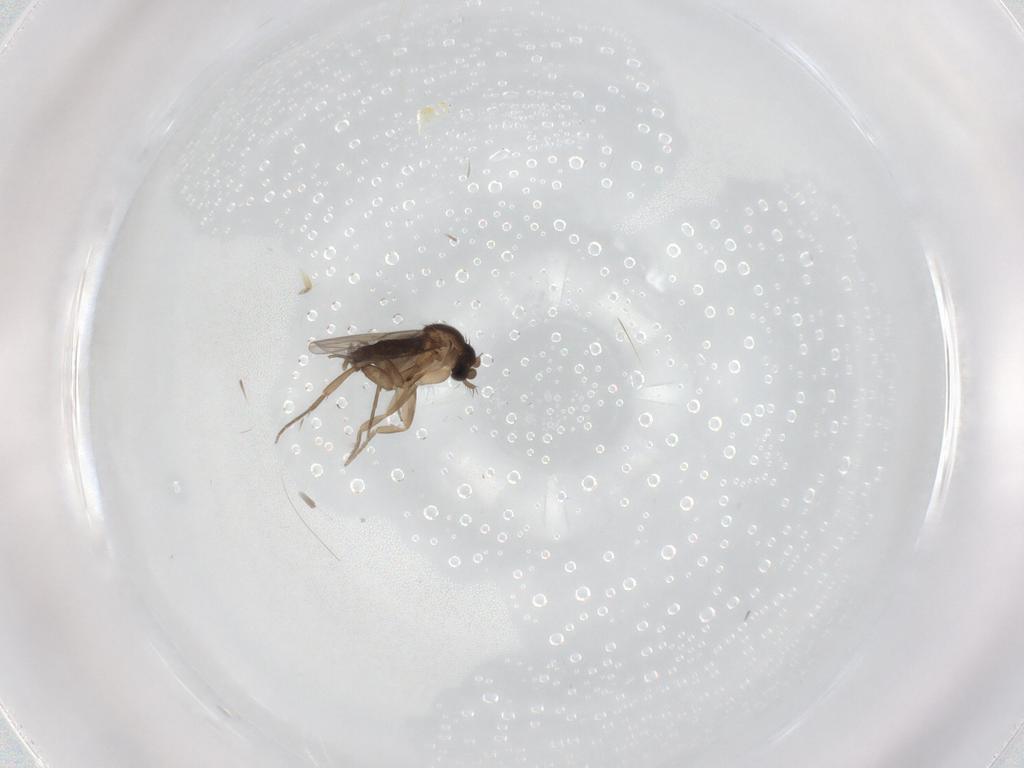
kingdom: Animalia
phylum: Arthropoda
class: Insecta
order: Diptera
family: Phoridae
